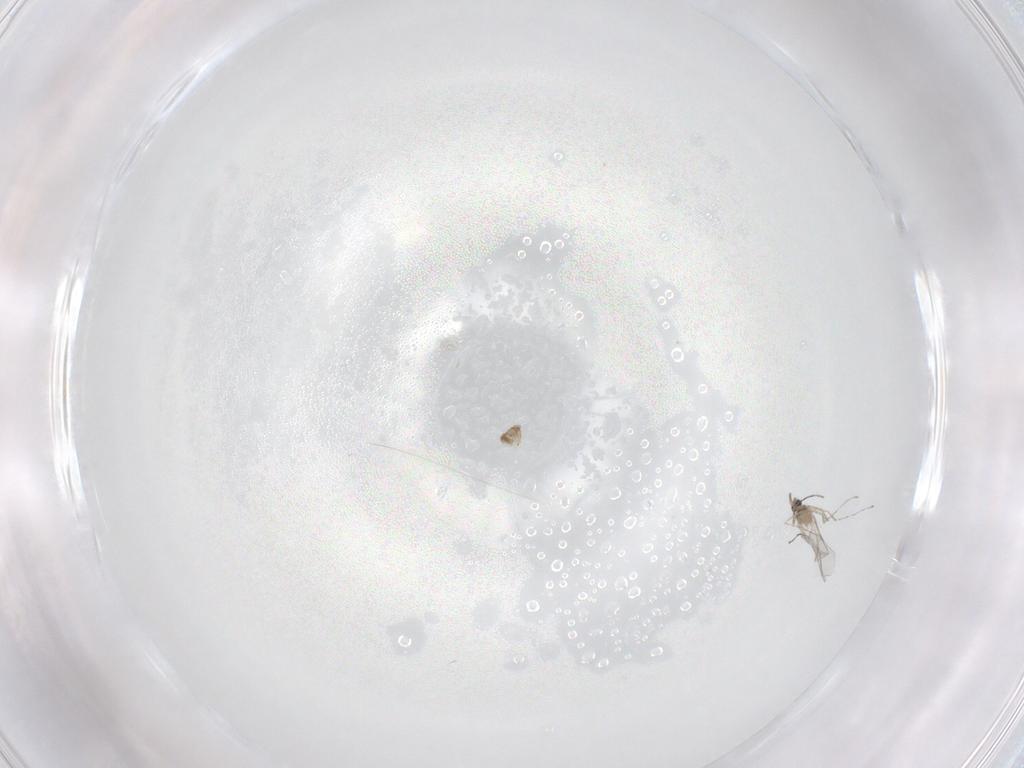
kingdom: Animalia
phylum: Arthropoda
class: Insecta
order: Diptera
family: Cecidomyiidae
